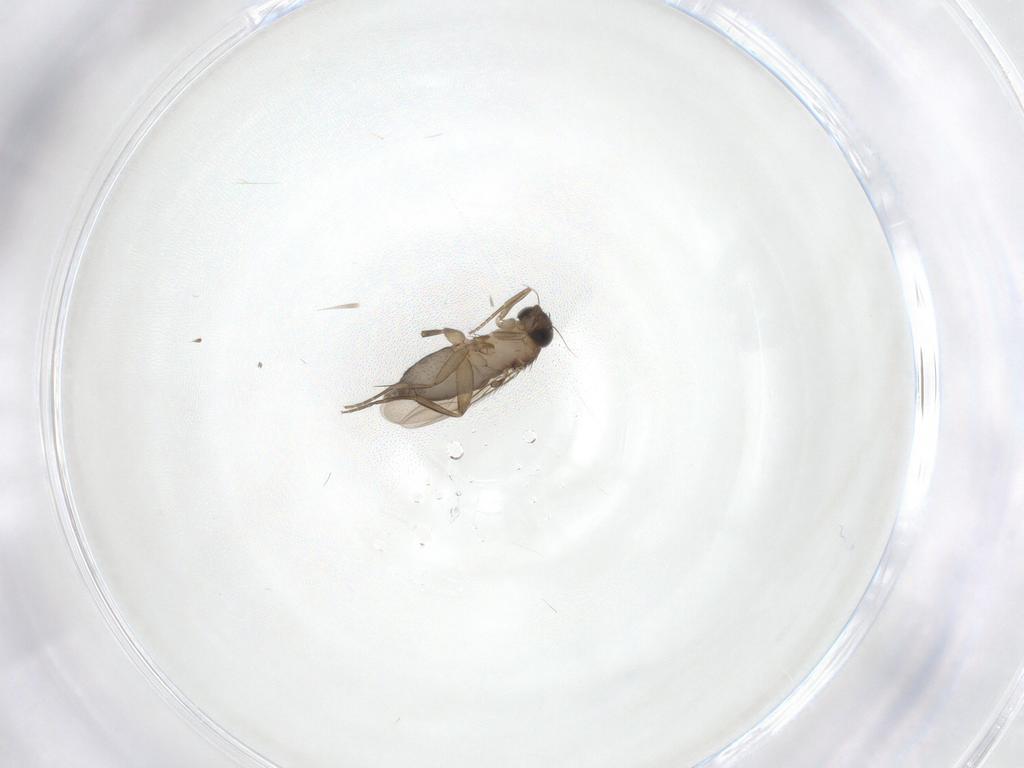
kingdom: Animalia
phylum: Arthropoda
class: Insecta
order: Diptera
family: Phoridae
